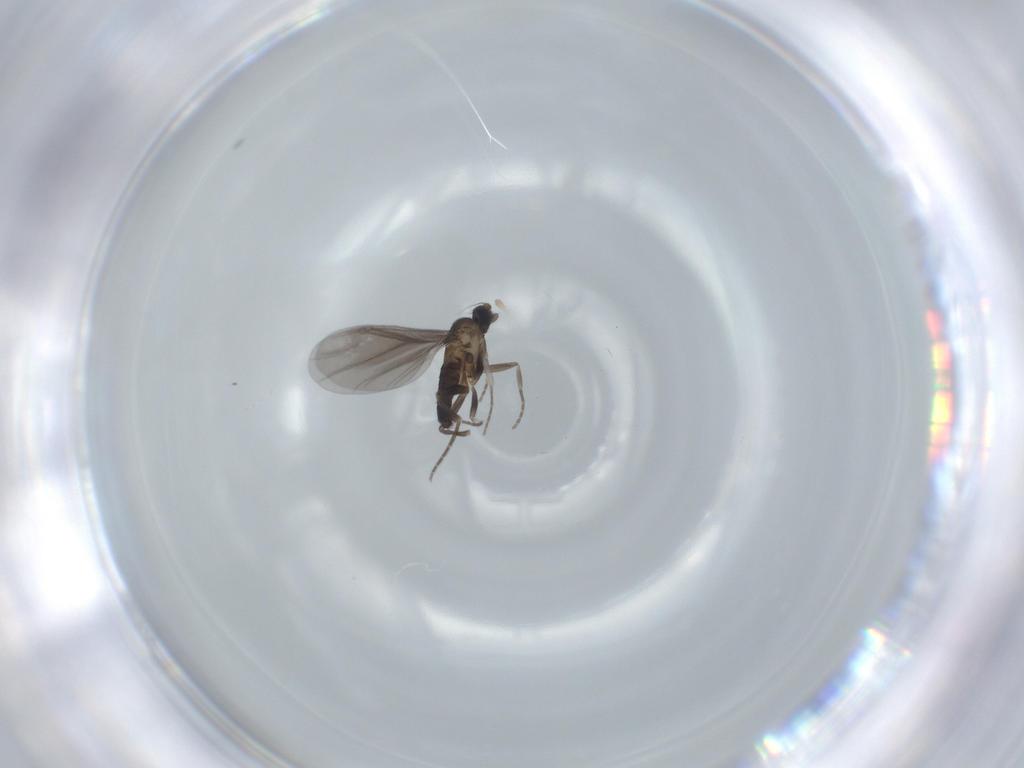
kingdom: Animalia
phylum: Arthropoda
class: Insecta
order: Diptera
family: Phoridae
